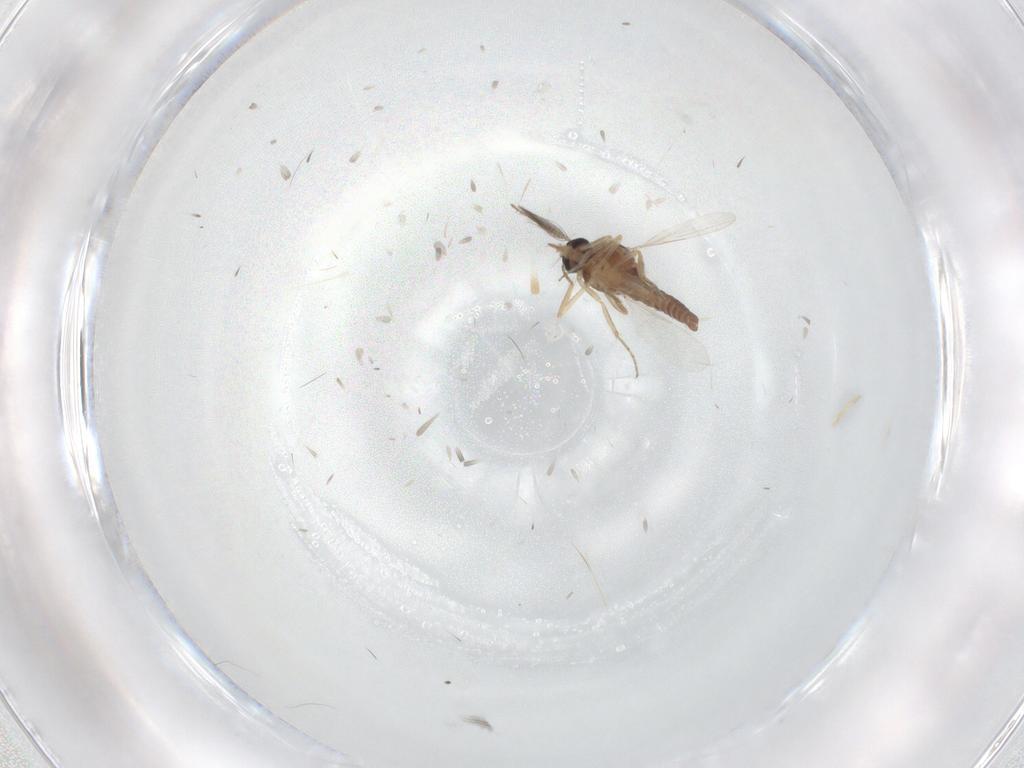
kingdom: Animalia
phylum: Arthropoda
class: Insecta
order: Diptera
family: Ceratopogonidae
